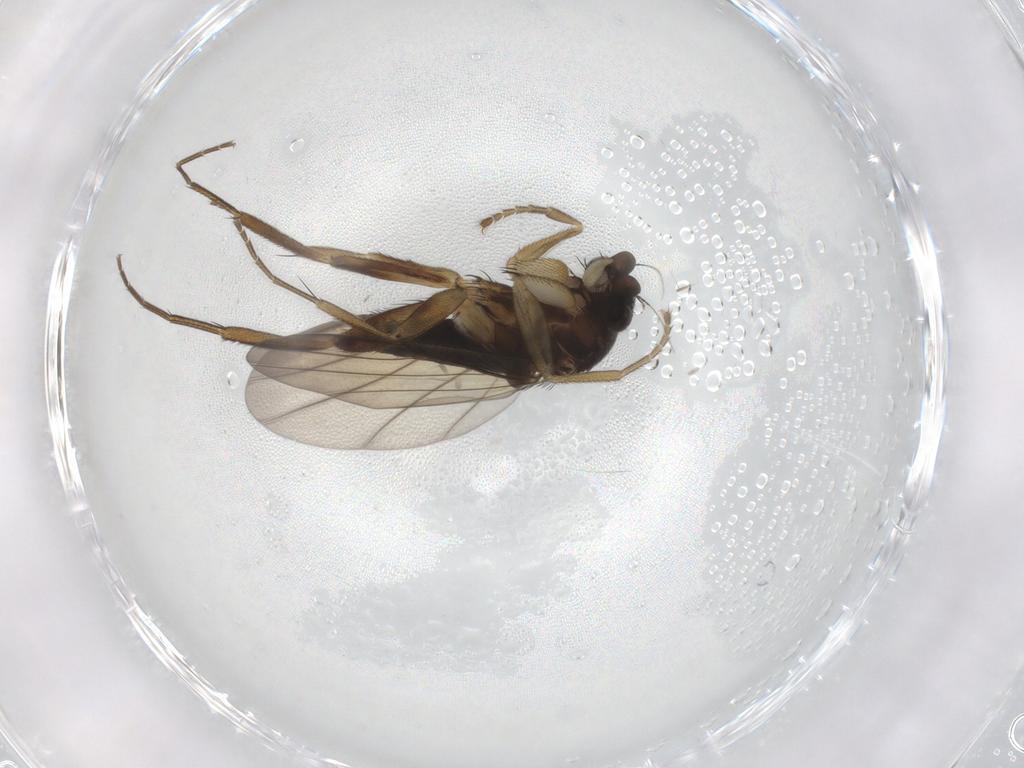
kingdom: Animalia
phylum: Arthropoda
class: Insecta
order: Diptera
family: Phoridae
